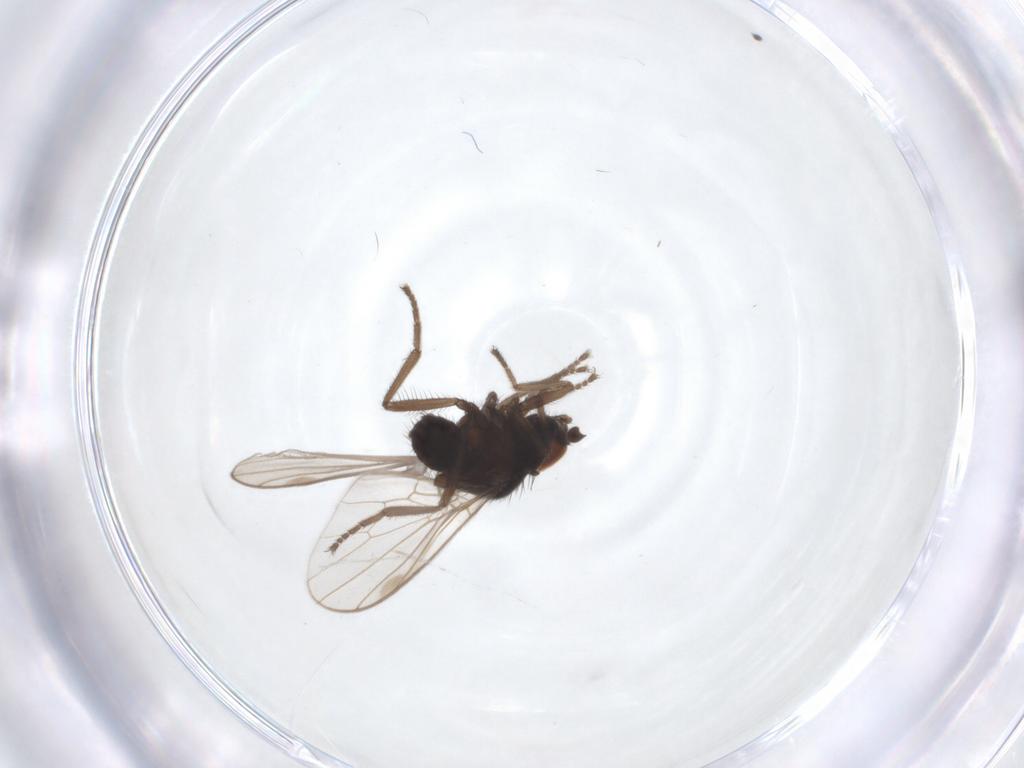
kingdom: Animalia
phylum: Arthropoda
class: Insecta
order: Diptera
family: Hybotidae
